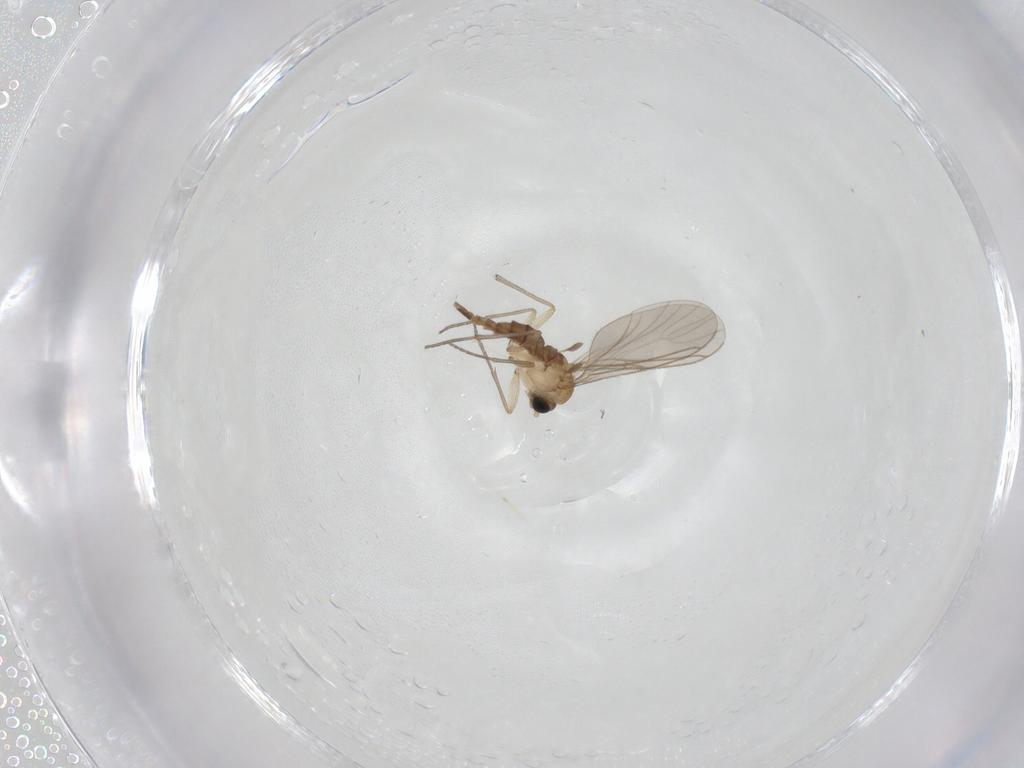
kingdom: Animalia
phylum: Arthropoda
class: Insecta
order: Diptera
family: Sciaridae
